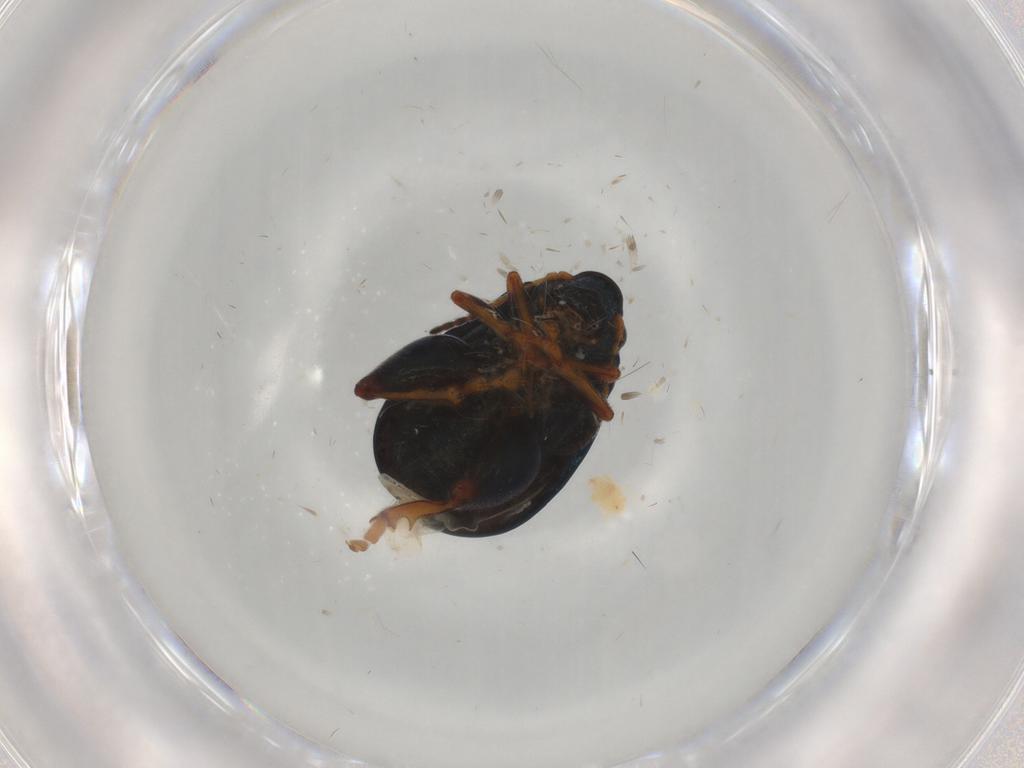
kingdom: Animalia
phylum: Arthropoda
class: Insecta
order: Coleoptera
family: Chrysomelidae
